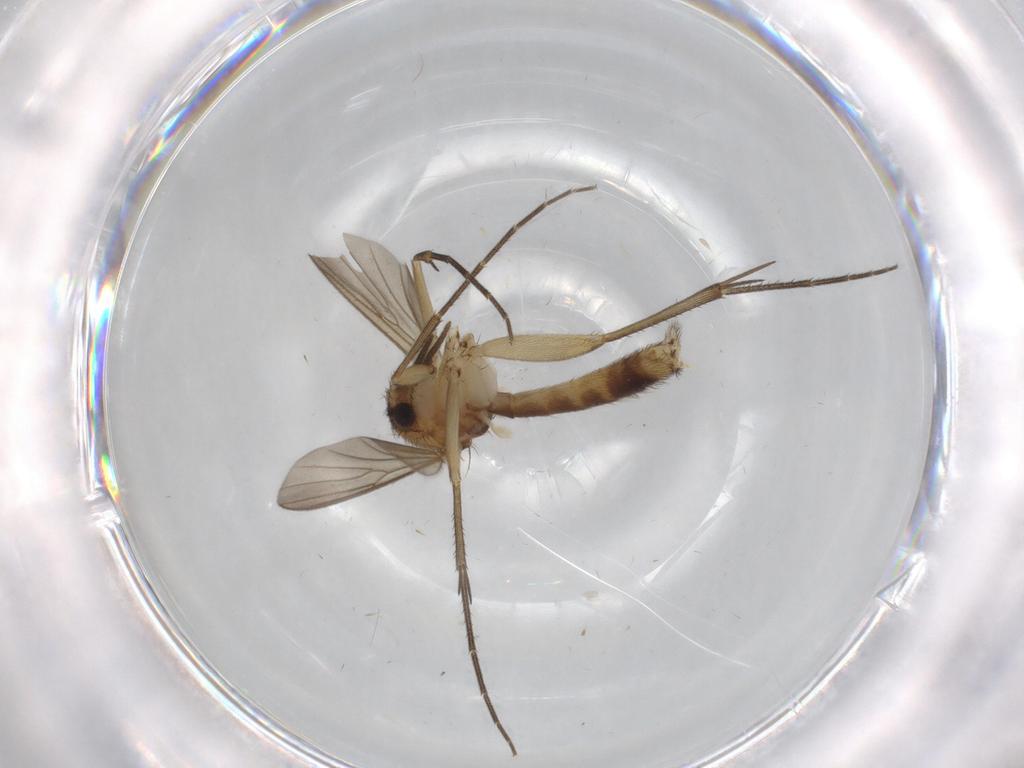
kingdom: Animalia
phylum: Arthropoda
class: Insecta
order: Diptera
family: Mycetophilidae
